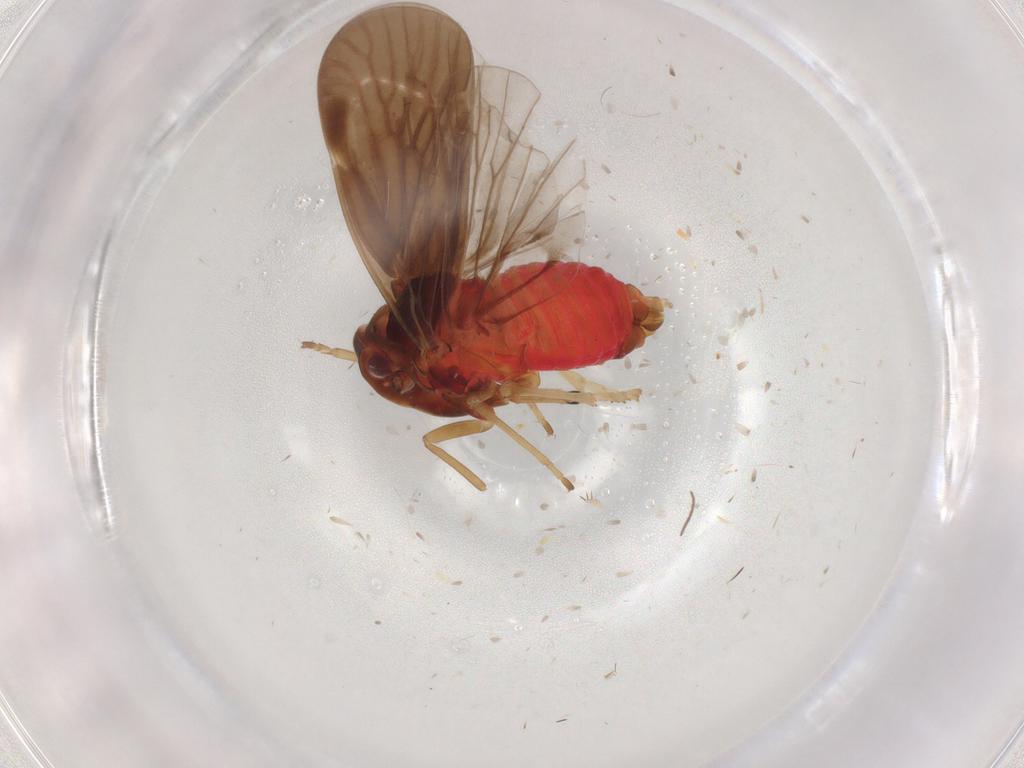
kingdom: Animalia
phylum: Arthropoda
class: Insecta
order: Hemiptera
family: Derbidae
